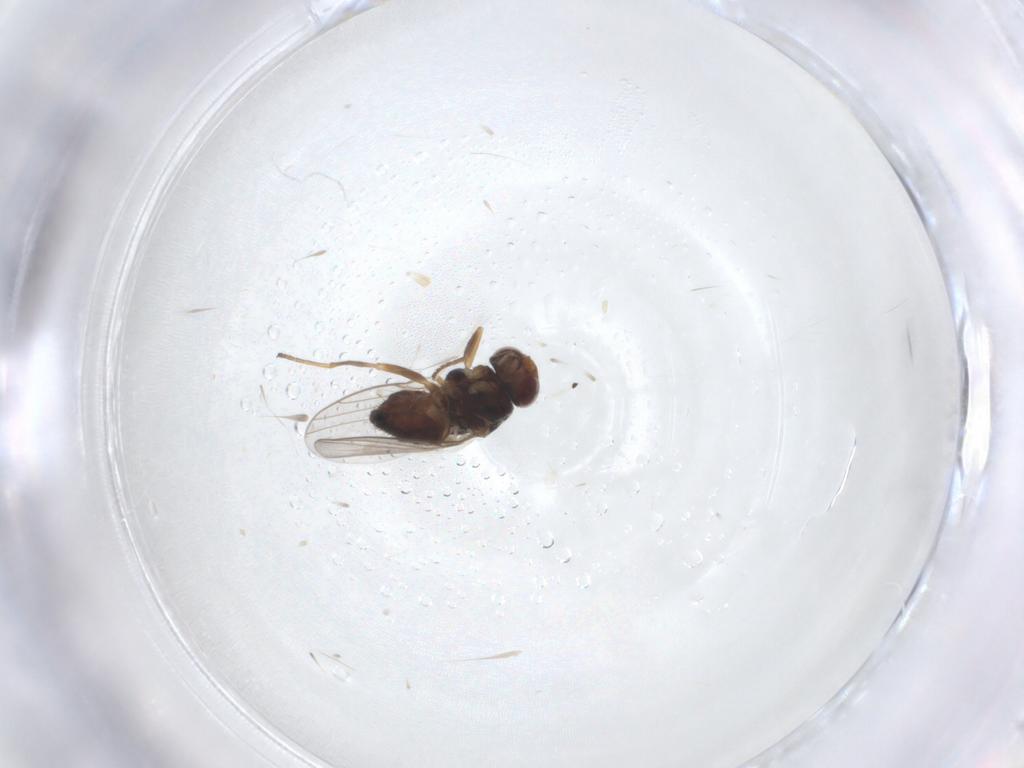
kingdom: Animalia
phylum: Arthropoda
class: Insecta
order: Diptera
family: Chloropidae
